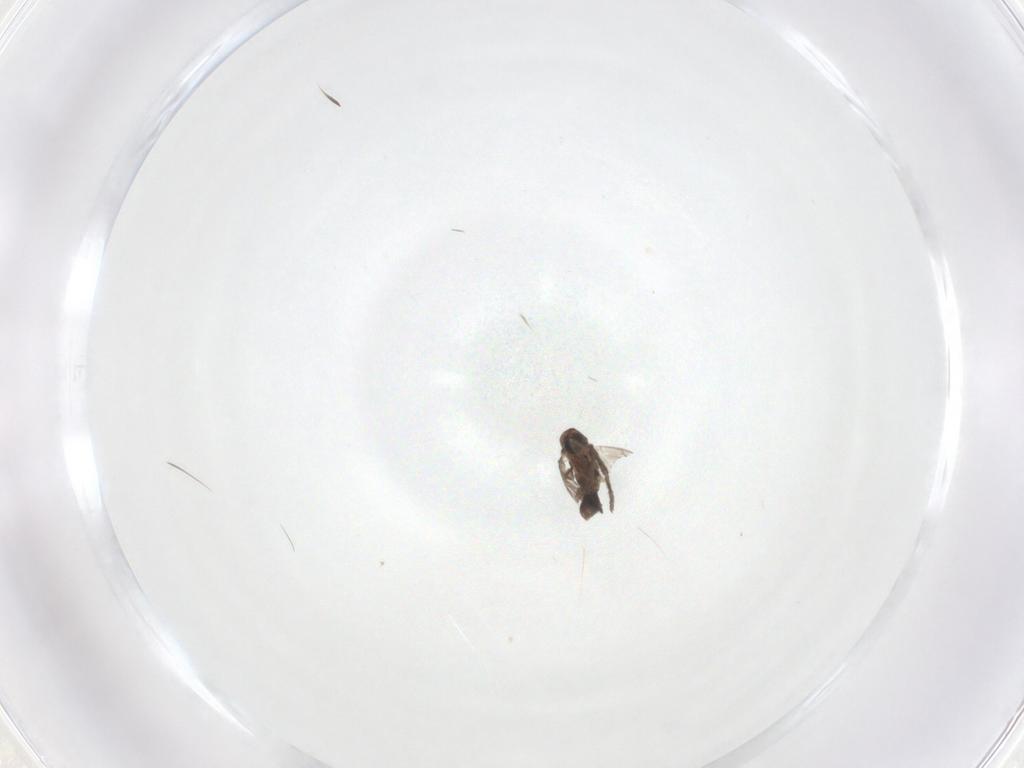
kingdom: Animalia
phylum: Arthropoda
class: Insecta
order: Diptera
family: Psychodidae
